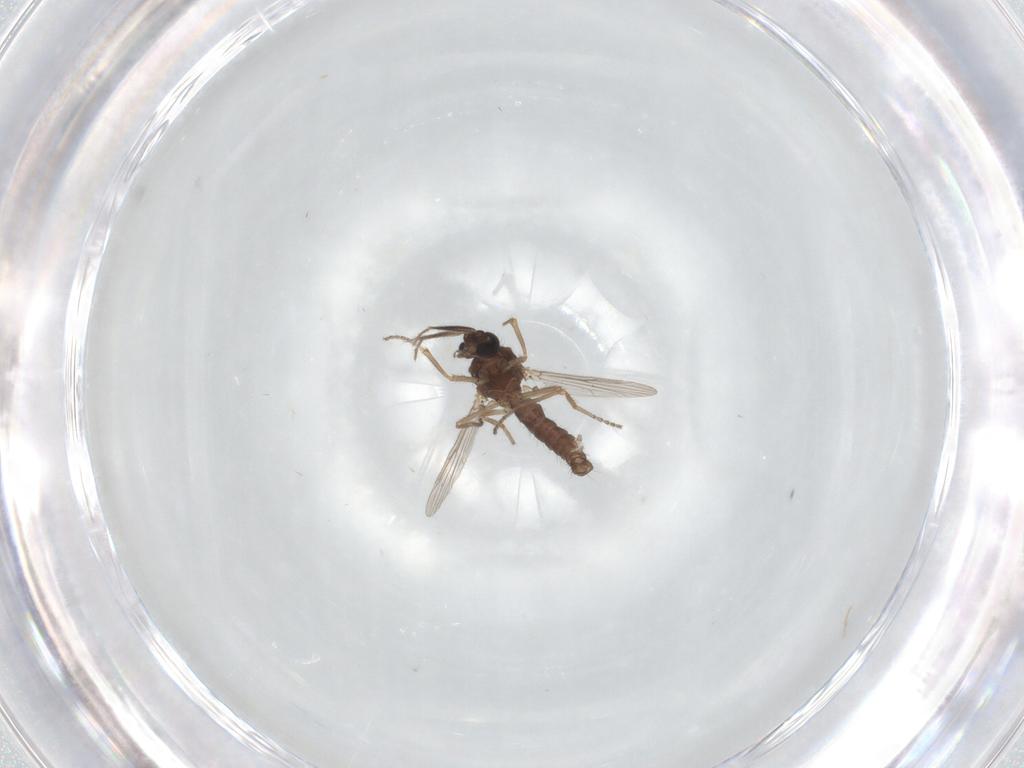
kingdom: Animalia
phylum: Arthropoda
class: Insecta
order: Diptera
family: Ceratopogonidae
